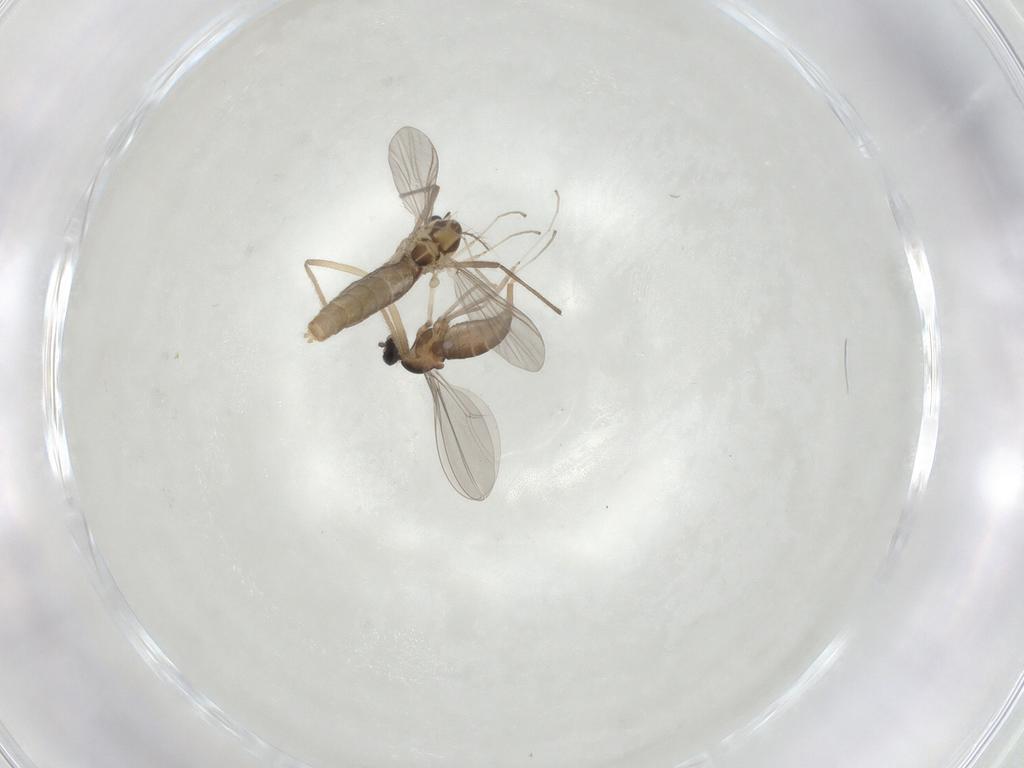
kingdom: Animalia
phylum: Arthropoda
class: Insecta
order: Diptera
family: Chironomidae
